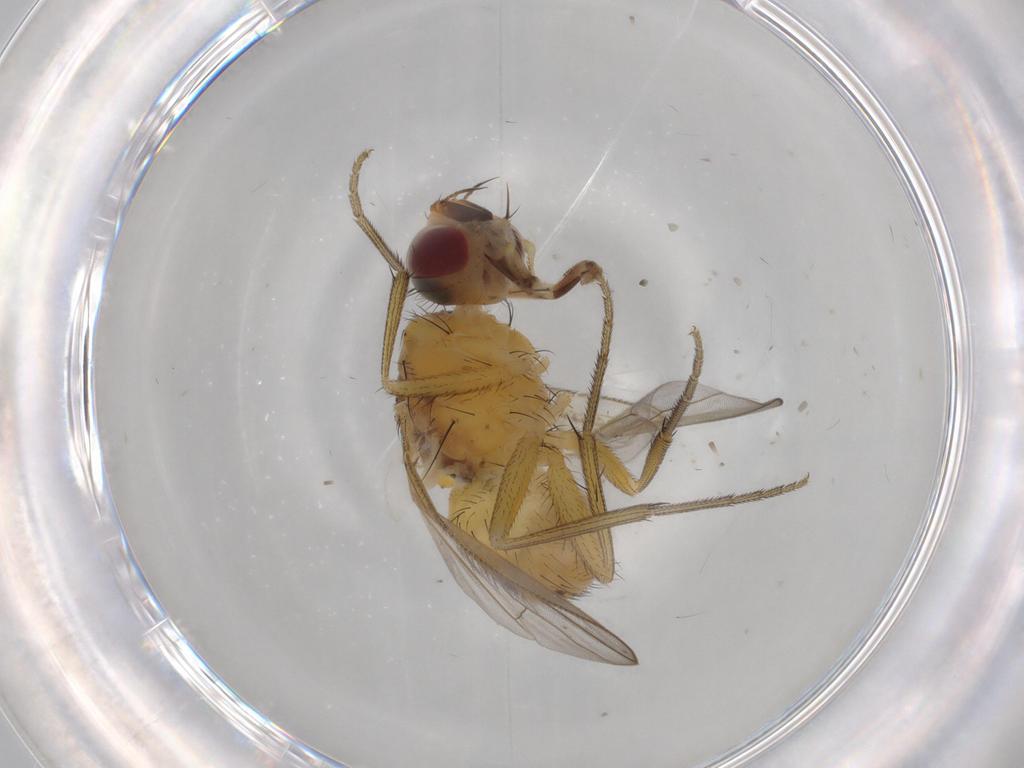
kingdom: Animalia
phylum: Arthropoda
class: Insecta
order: Diptera
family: Muscidae
